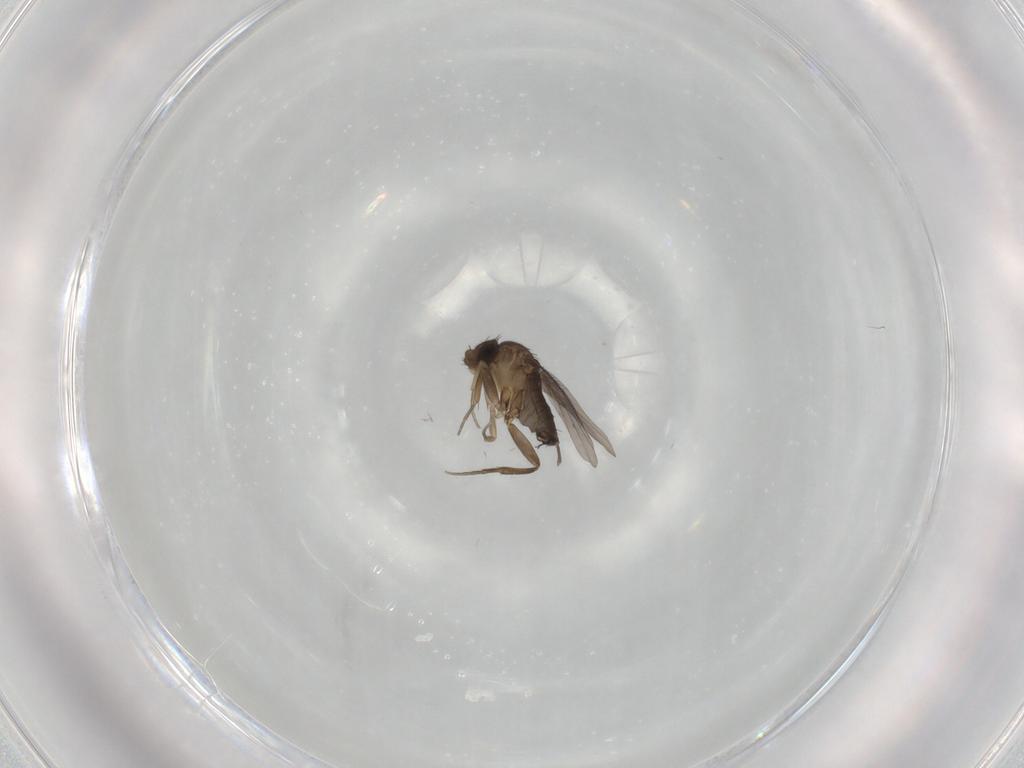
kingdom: Animalia
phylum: Arthropoda
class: Insecta
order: Diptera
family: Phoridae
